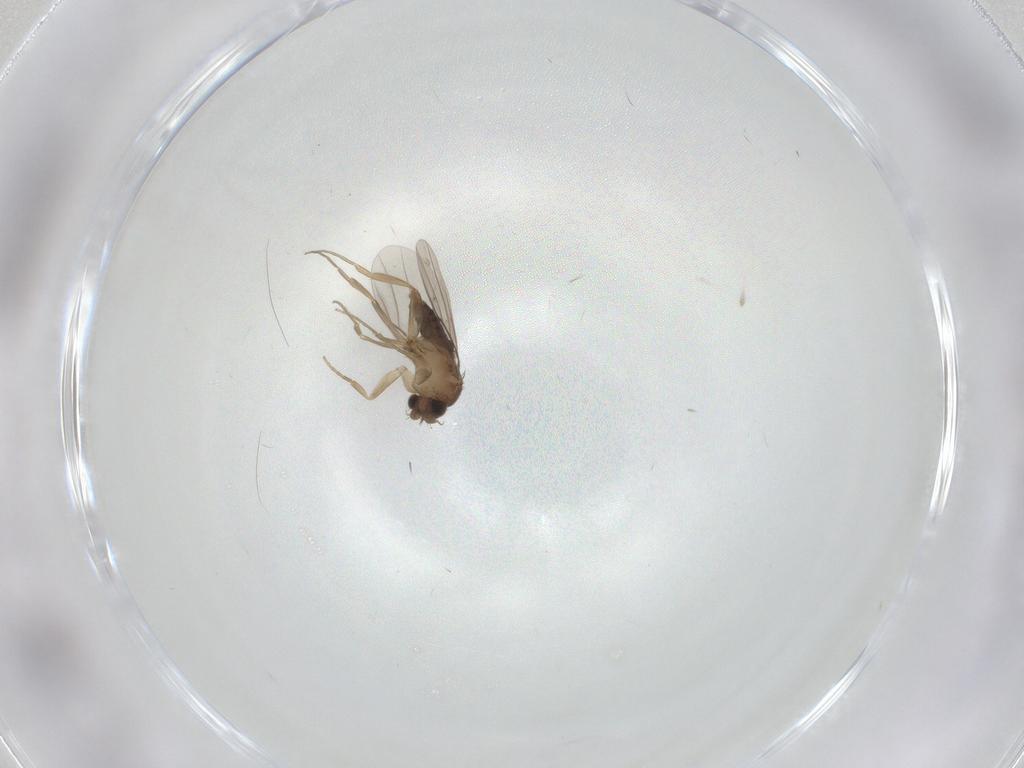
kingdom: Animalia
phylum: Arthropoda
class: Insecta
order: Diptera
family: Phoridae
